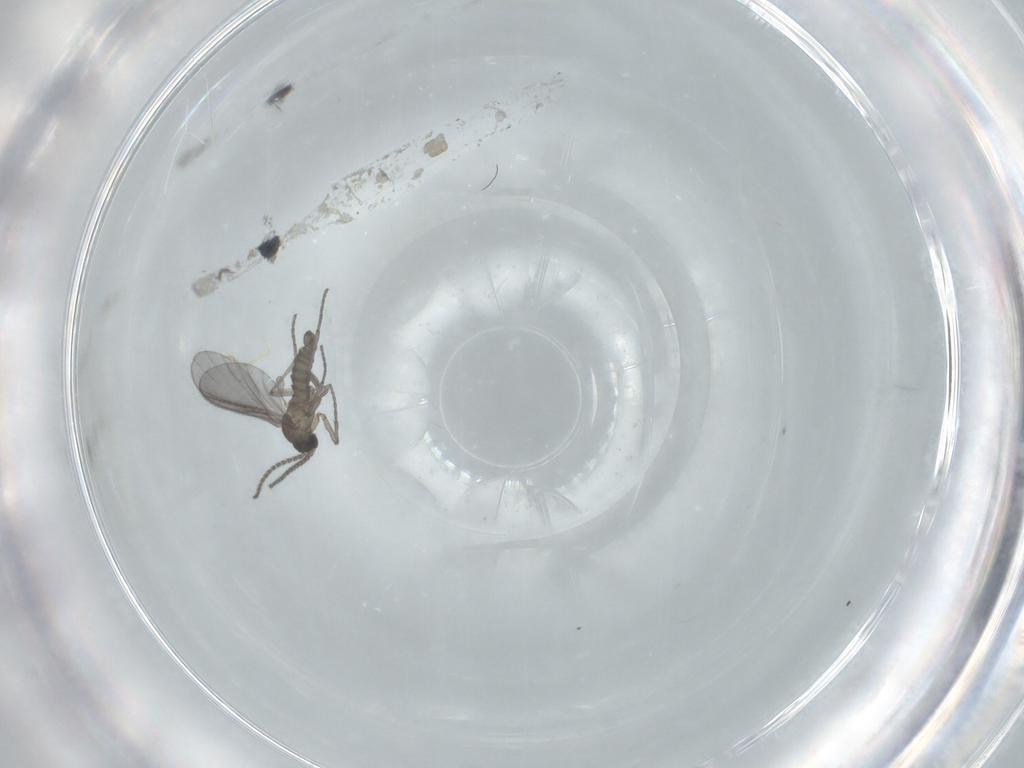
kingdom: Animalia
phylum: Arthropoda
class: Insecta
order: Diptera
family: Sciaridae
